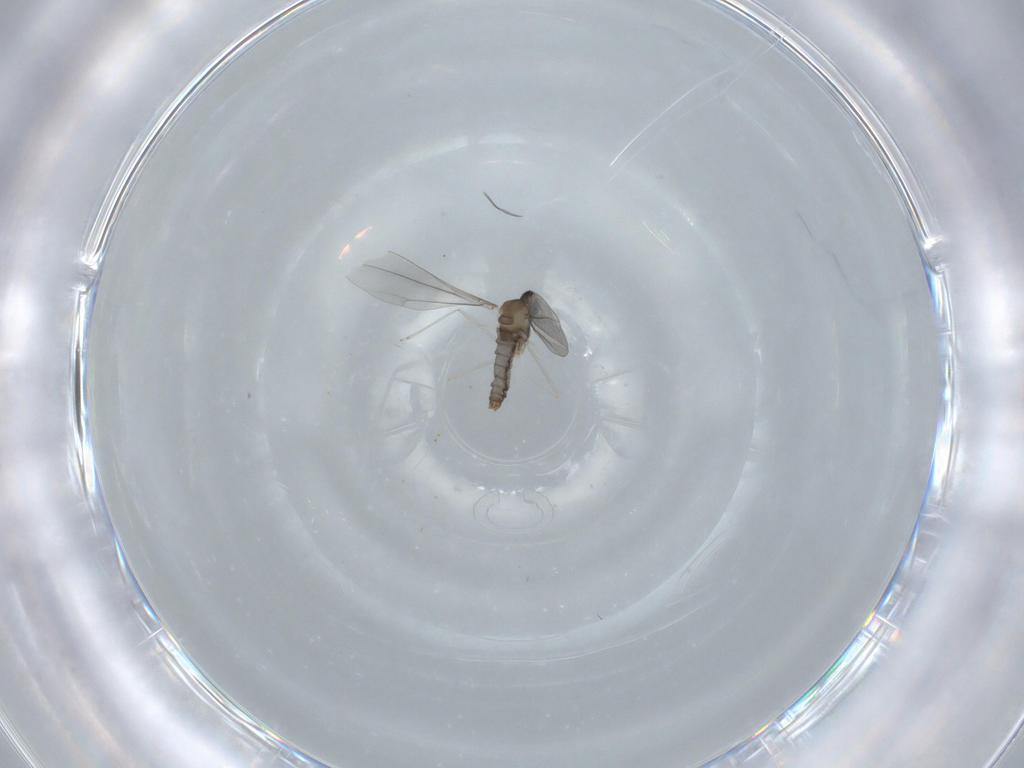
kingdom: Animalia
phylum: Arthropoda
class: Insecta
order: Diptera
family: Cecidomyiidae
